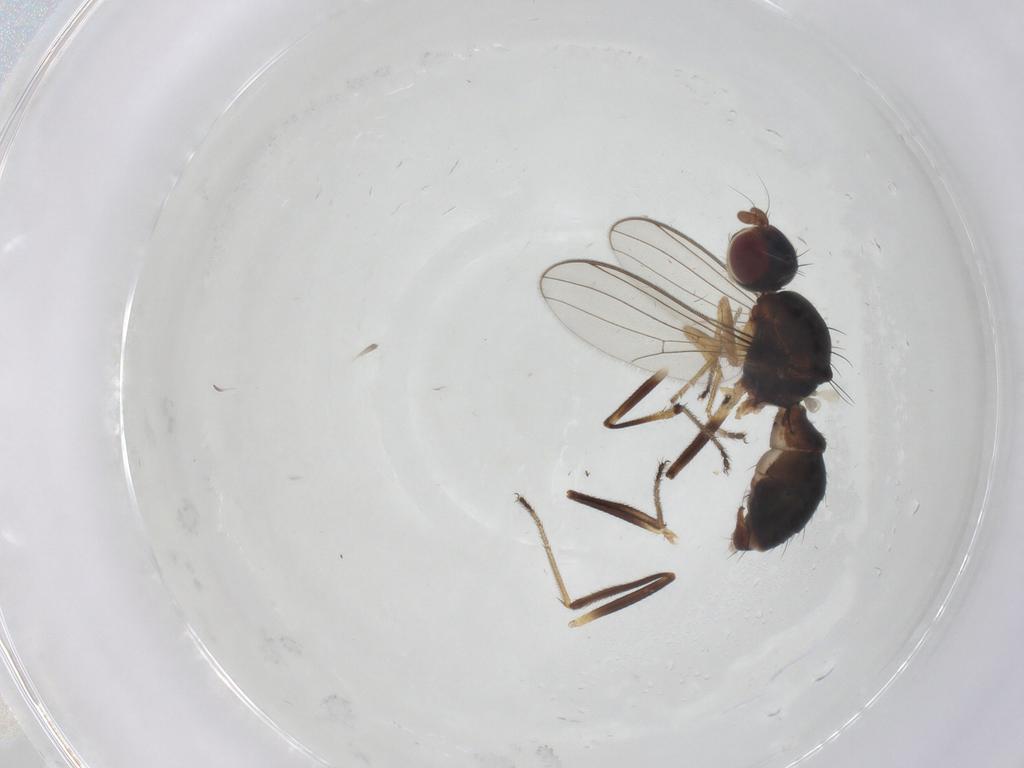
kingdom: Animalia
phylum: Arthropoda
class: Insecta
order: Diptera
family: Sepsidae
